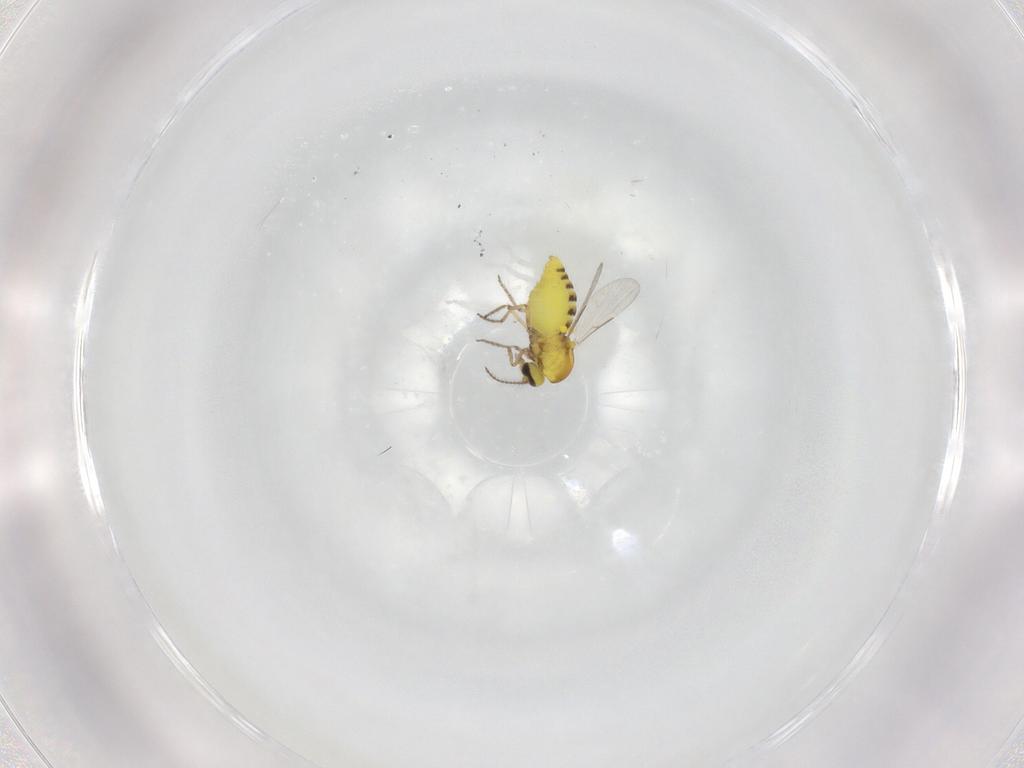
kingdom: Animalia
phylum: Arthropoda
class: Insecta
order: Diptera
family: Ceratopogonidae
